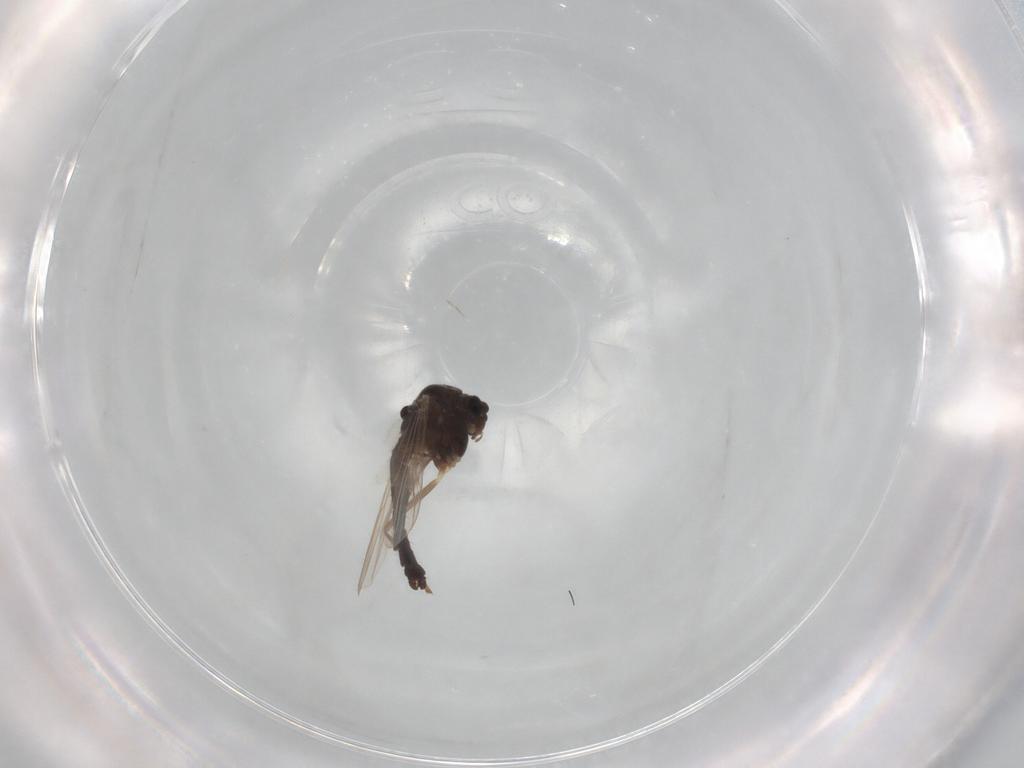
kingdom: Animalia
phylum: Arthropoda
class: Insecta
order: Diptera
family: Chironomidae
